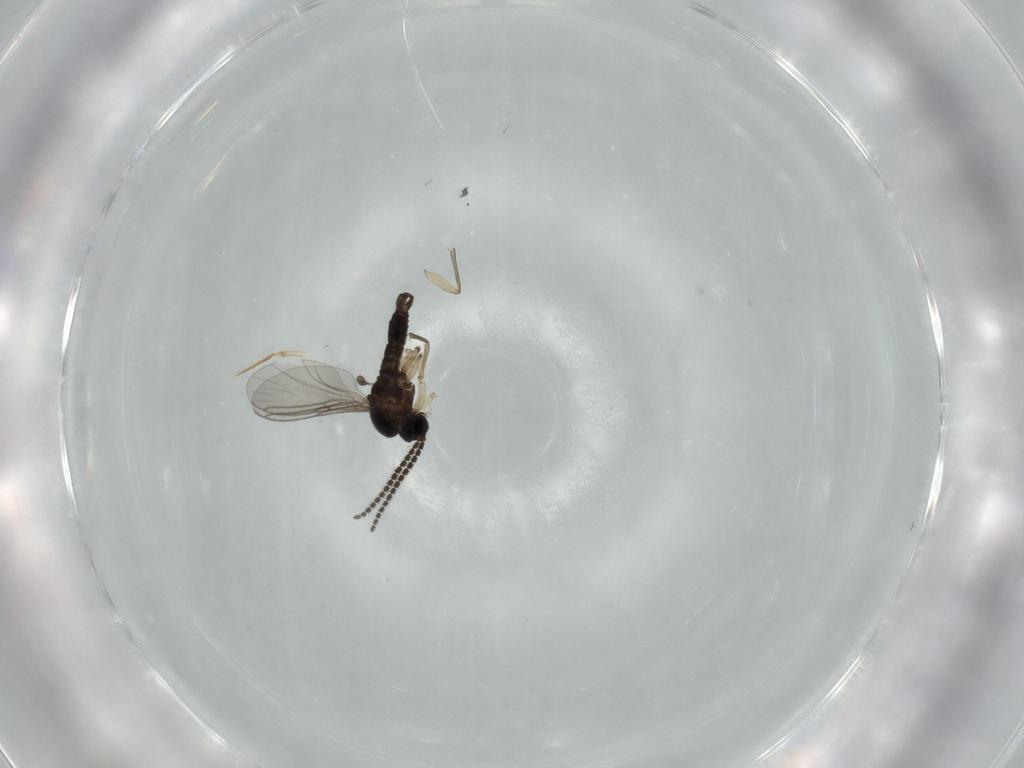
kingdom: Animalia
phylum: Arthropoda
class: Insecta
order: Diptera
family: Sciaridae
